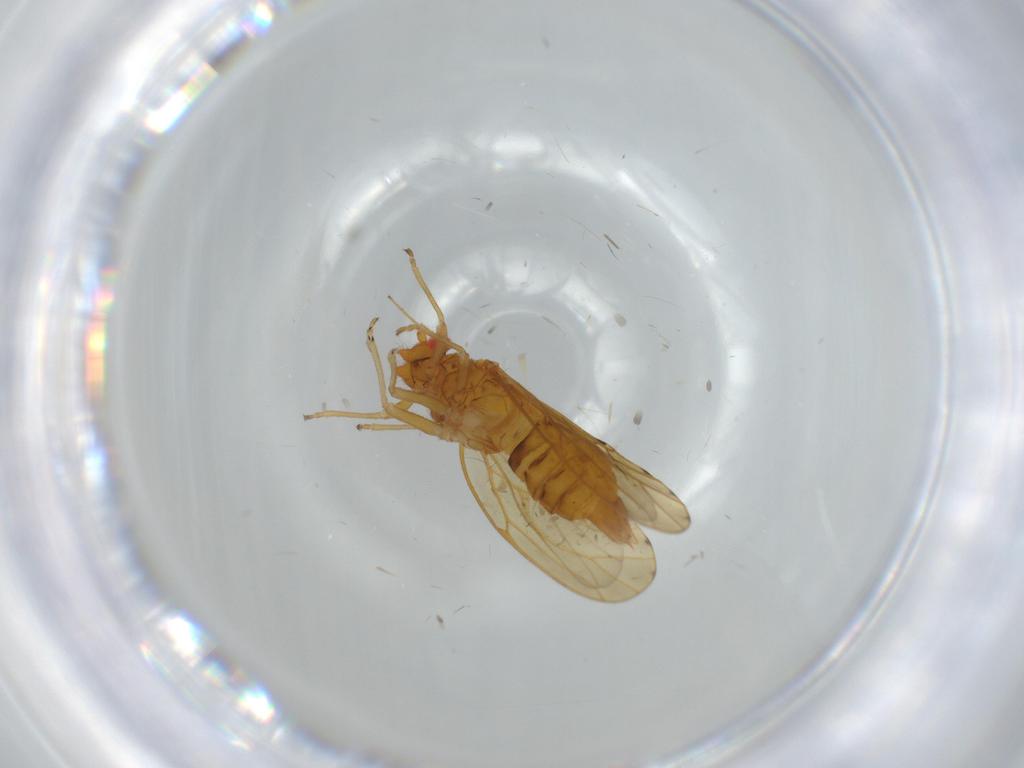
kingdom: Animalia
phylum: Arthropoda
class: Insecta
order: Diptera
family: Cecidomyiidae
